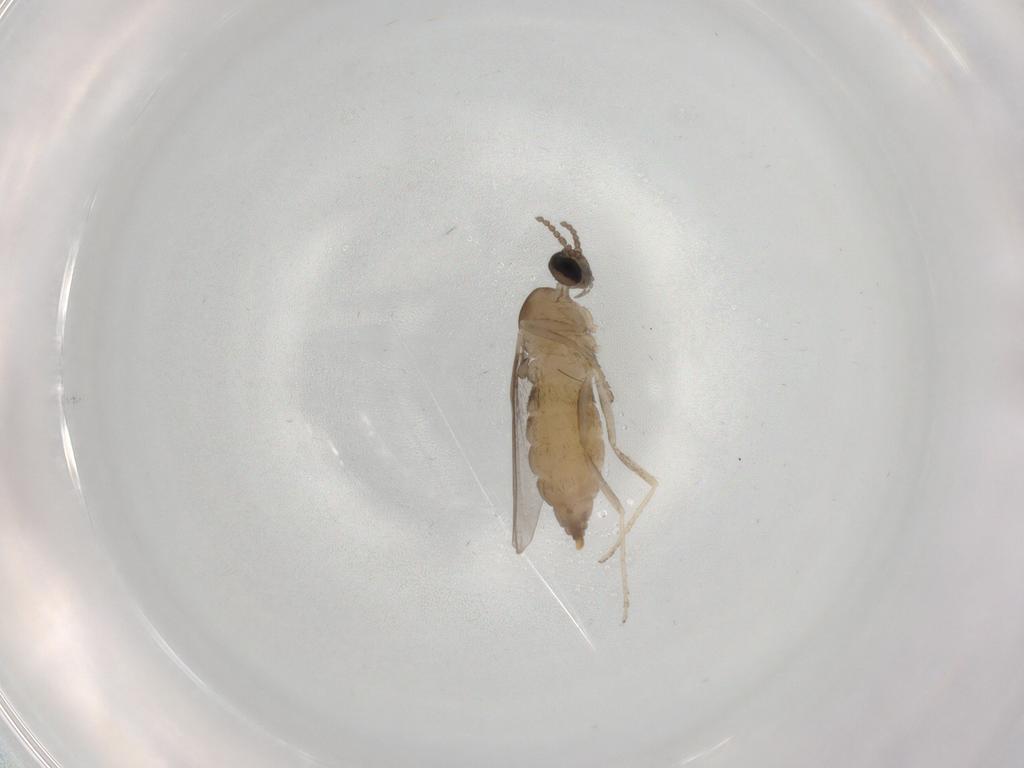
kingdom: Animalia
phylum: Arthropoda
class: Insecta
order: Diptera
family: Cecidomyiidae
